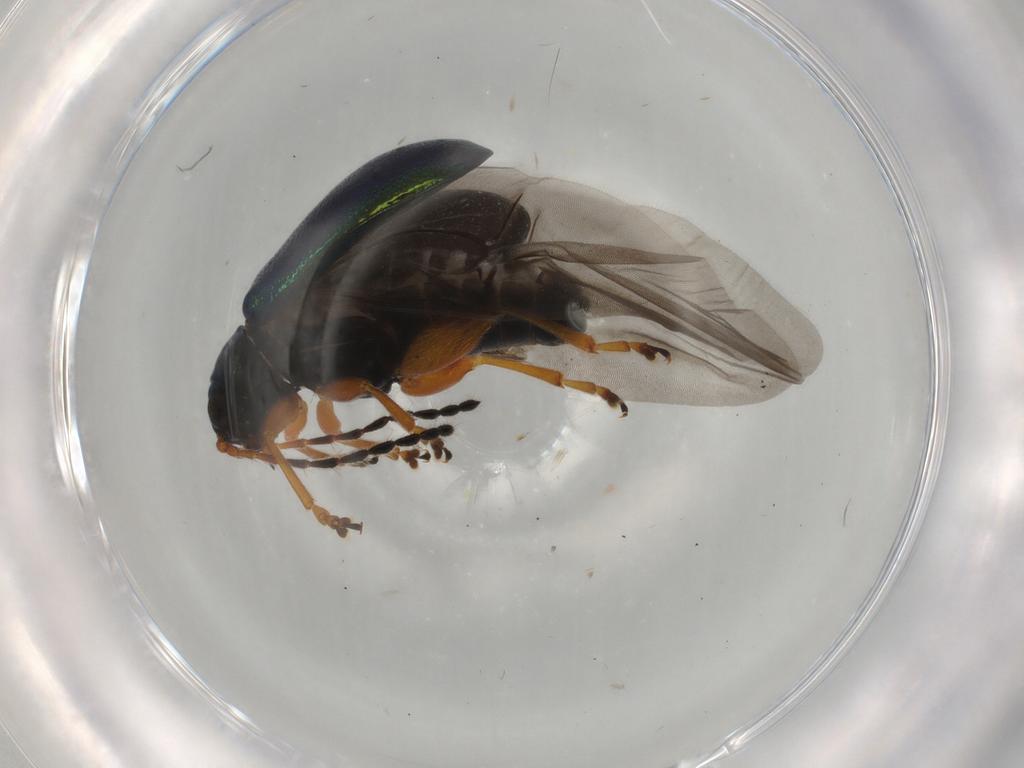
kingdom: Animalia
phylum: Arthropoda
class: Insecta
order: Coleoptera
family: Chrysomelidae
